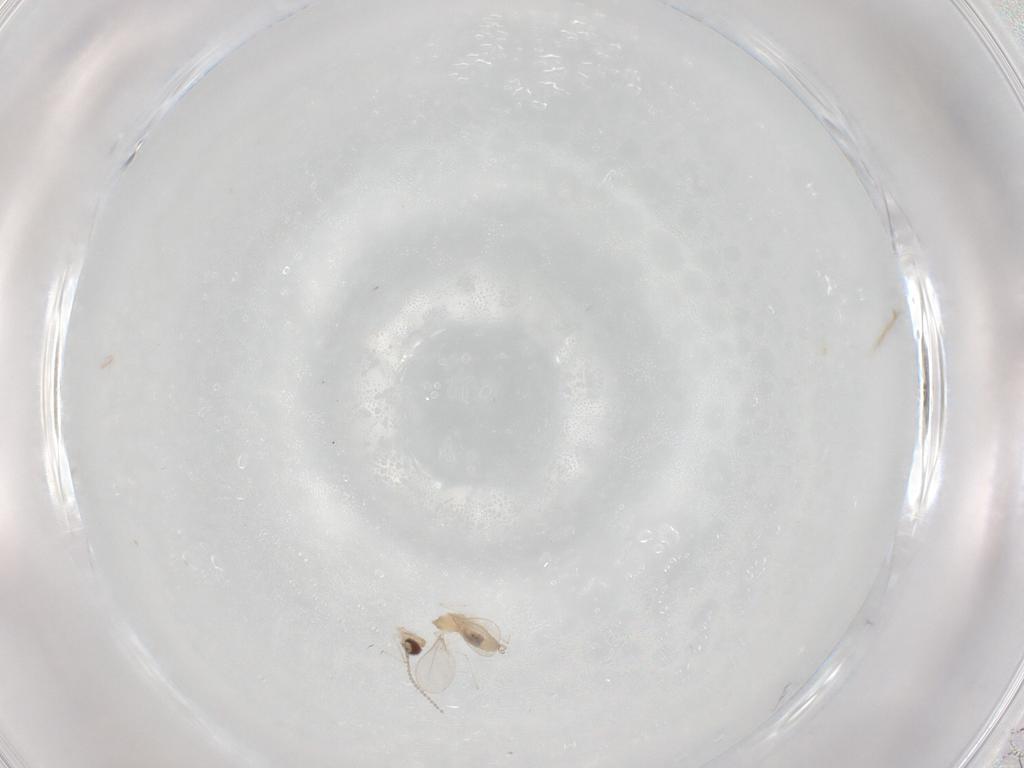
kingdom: Animalia
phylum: Arthropoda
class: Insecta
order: Diptera
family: Cecidomyiidae
